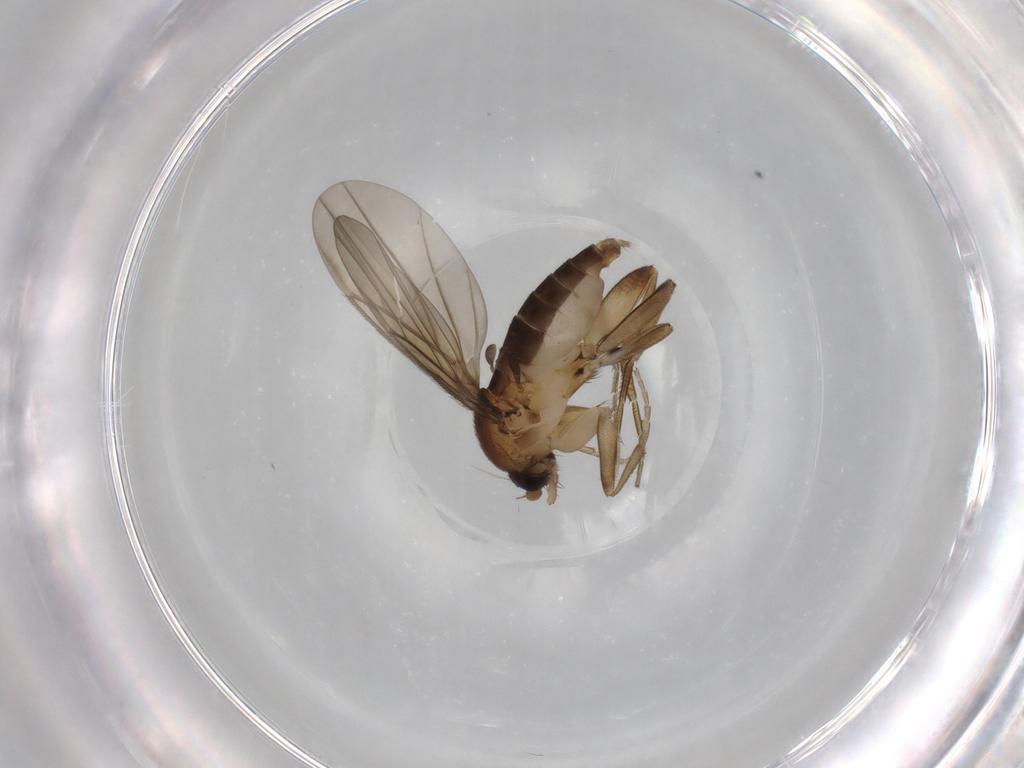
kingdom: Animalia
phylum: Arthropoda
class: Insecta
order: Diptera
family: Phoridae
